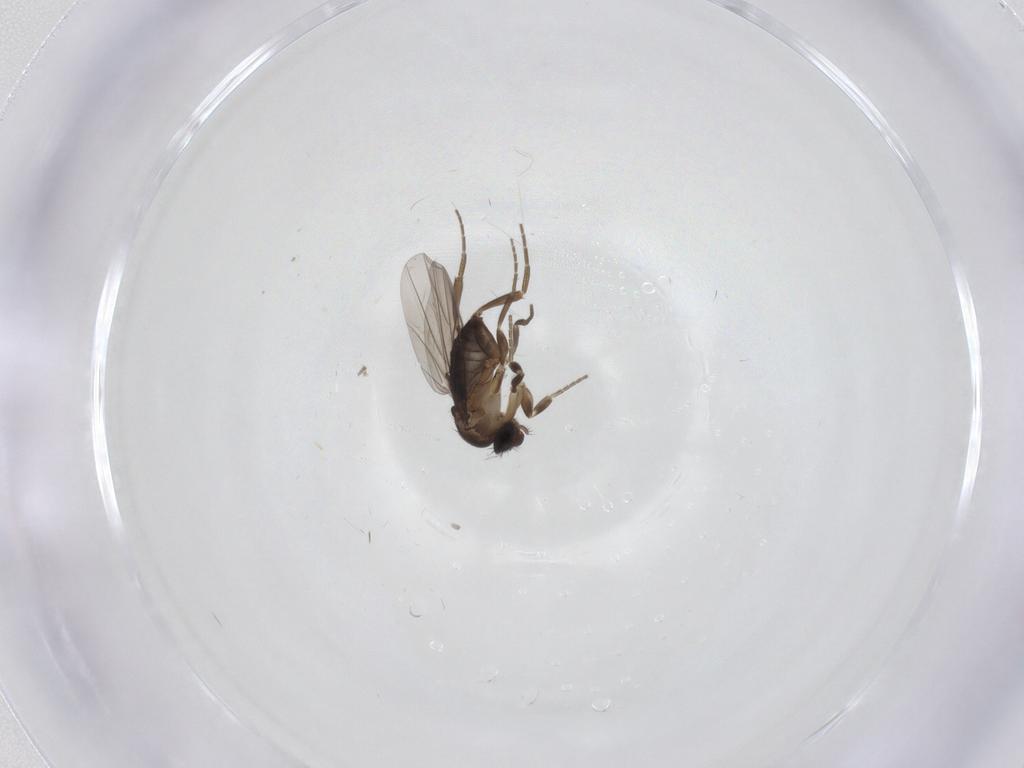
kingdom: Animalia
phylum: Arthropoda
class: Insecta
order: Diptera
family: Phoridae
